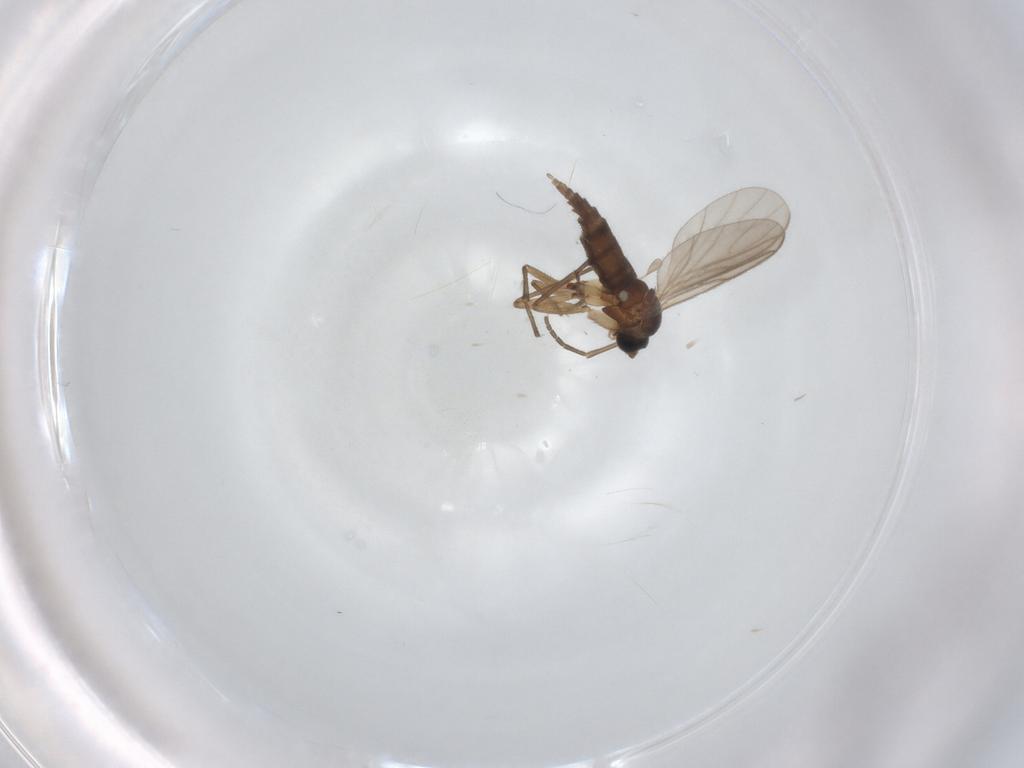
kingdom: Animalia
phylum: Arthropoda
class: Insecta
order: Diptera
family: Sciaridae
